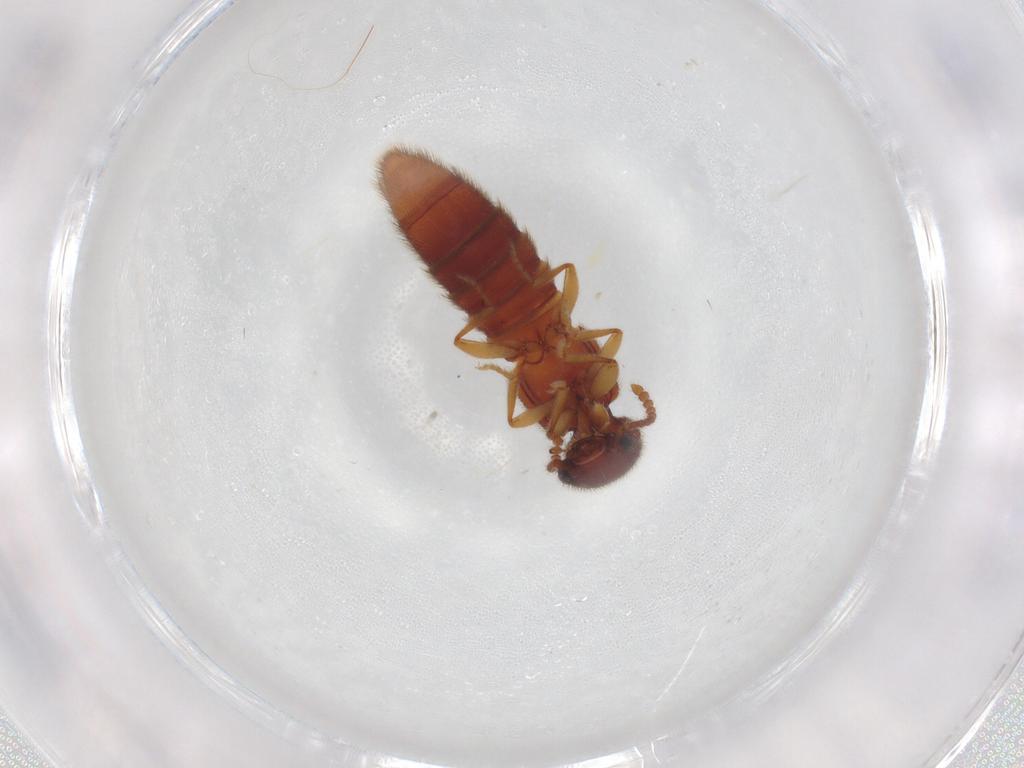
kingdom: Animalia
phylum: Arthropoda
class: Insecta
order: Coleoptera
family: Staphylinidae
